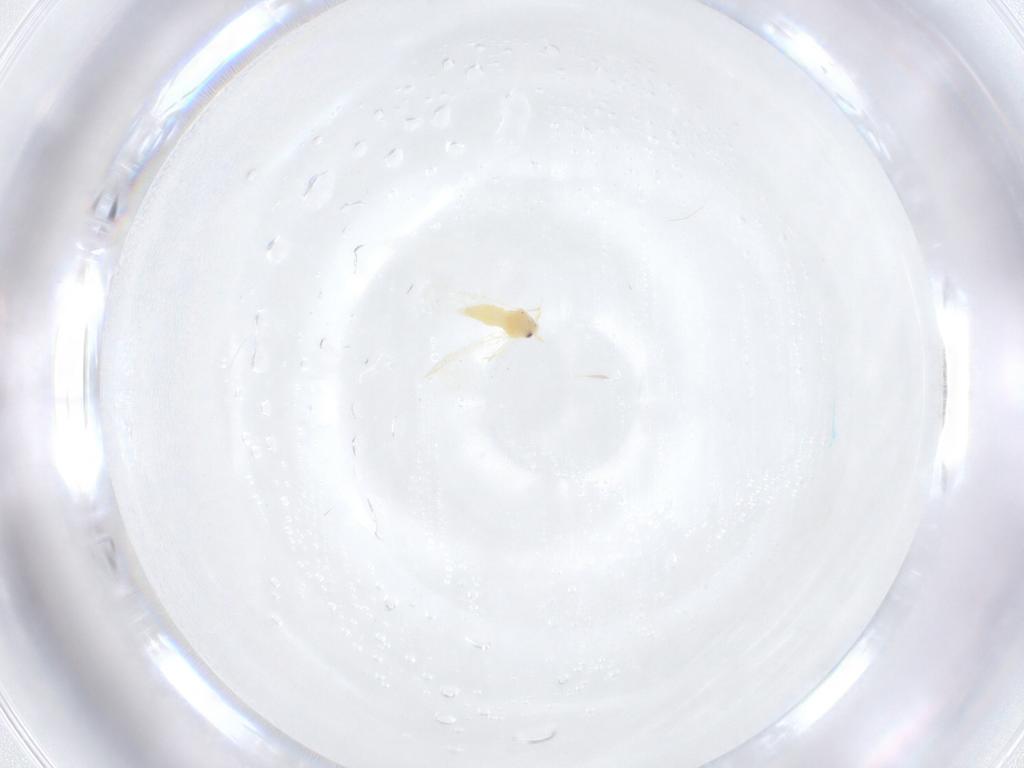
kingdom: Animalia
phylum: Arthropoda
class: Insecta
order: Hemiptera
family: Aleyrodidae
